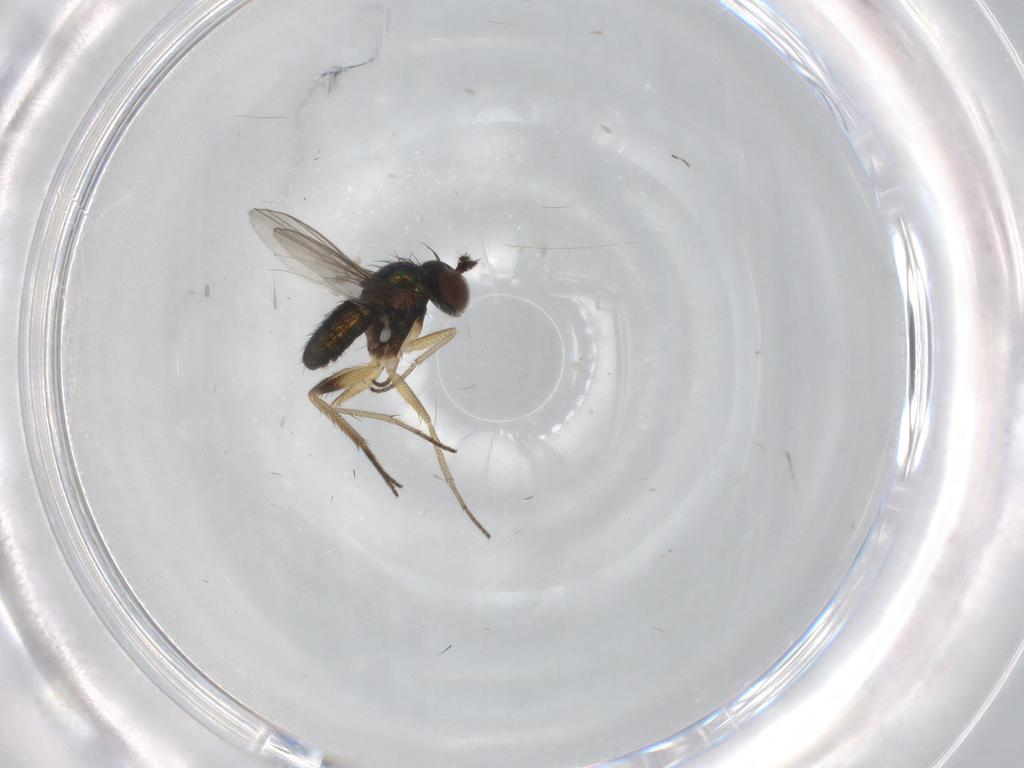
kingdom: Animalia
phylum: Arthropoda
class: Insecta
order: Diptera
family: Dolichopodidae
